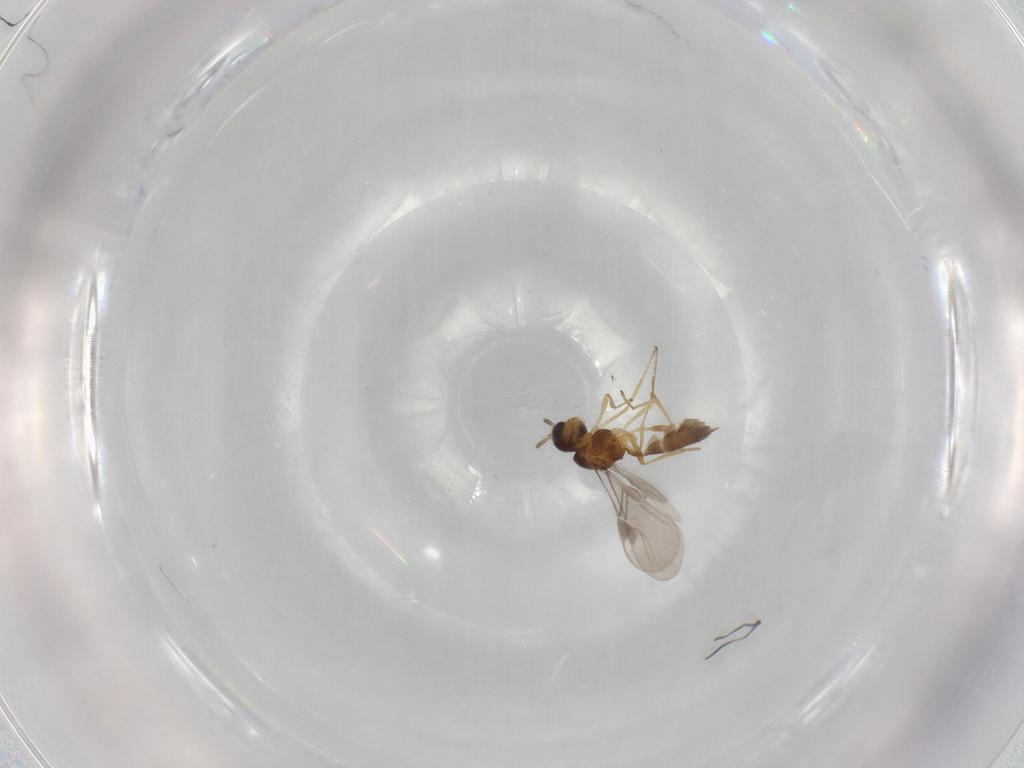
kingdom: Animalia
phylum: Arthropoda
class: Insecta
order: Hymenoptera
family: Braconidae
